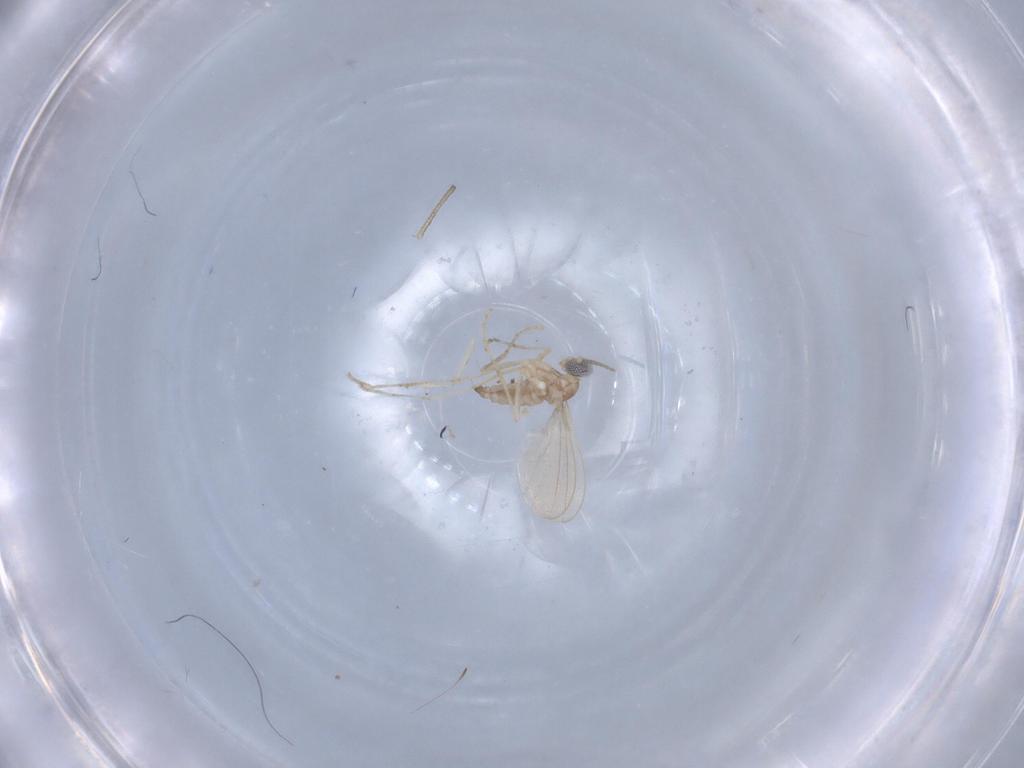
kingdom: Animalia
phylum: Arthropoda
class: Insecta
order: Diptera
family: Cecidomyiidae
